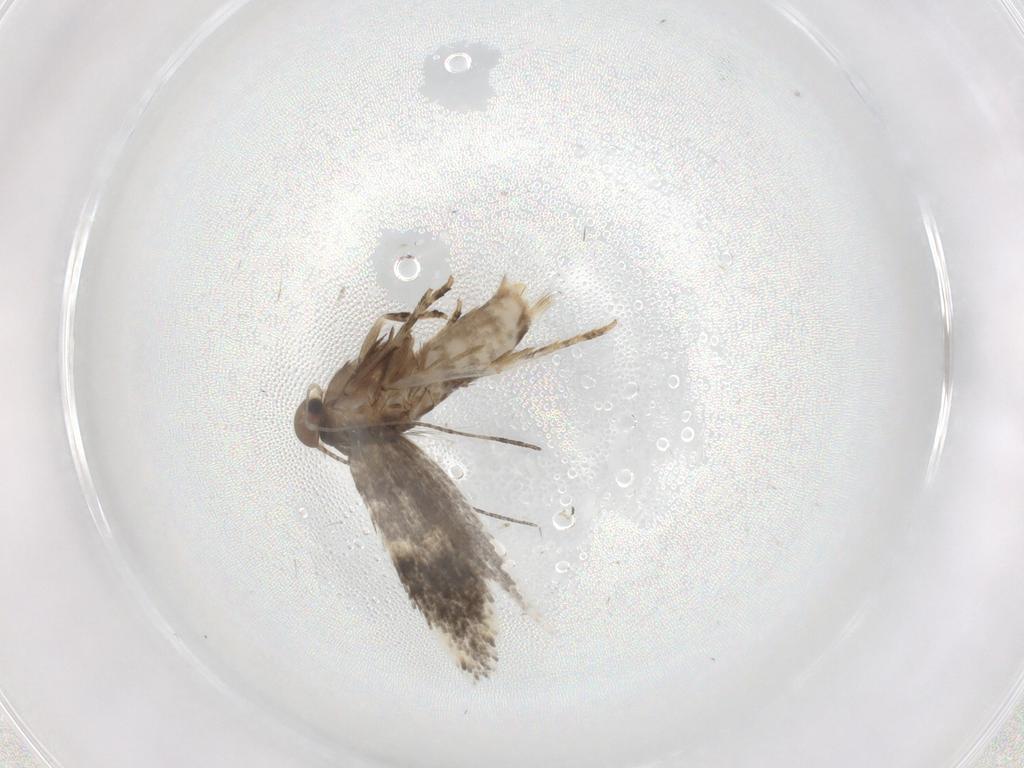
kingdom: Animalia
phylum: Arthropoda
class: Insecta
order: Lepidoptera
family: Elachistidae
